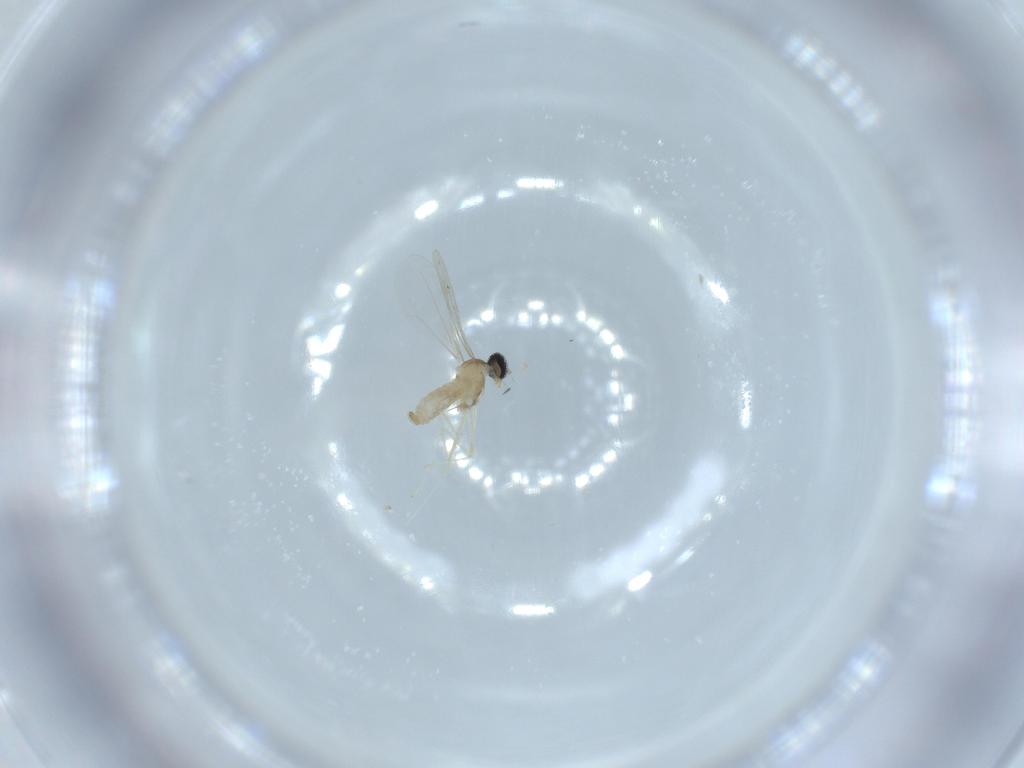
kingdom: Animalia
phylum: Arthropoda
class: Insecta
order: Diptera
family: Cecidomyiidae
